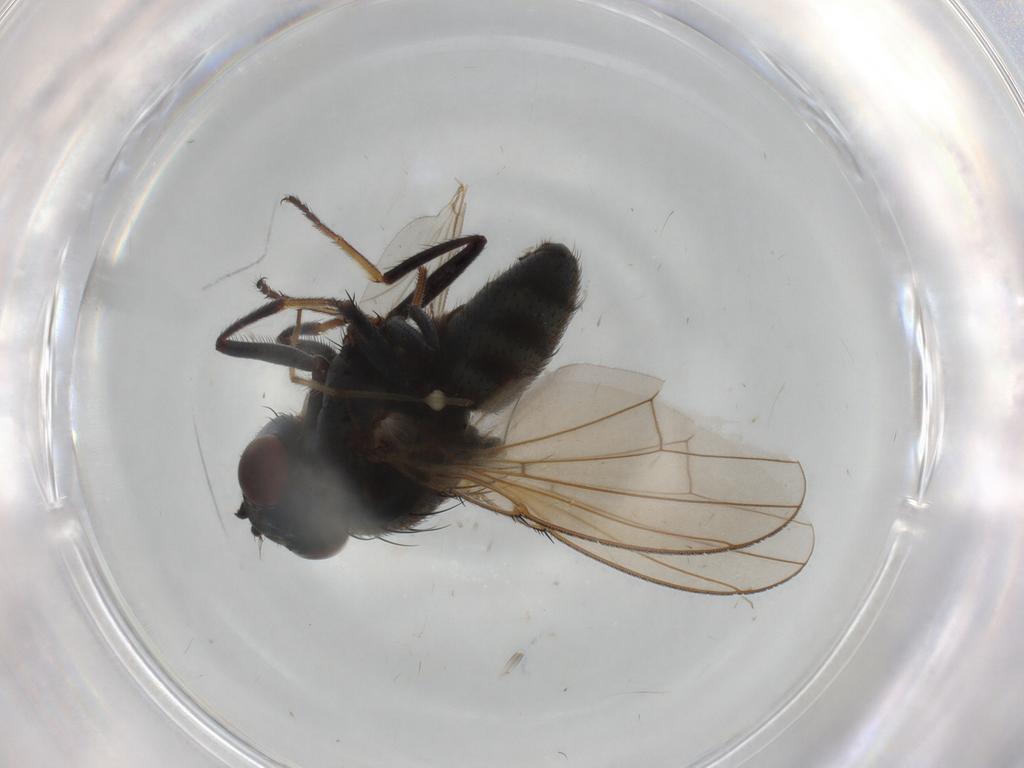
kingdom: Animalia
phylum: Arthropoda
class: Insecta
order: Diptera
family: Sciaridae
